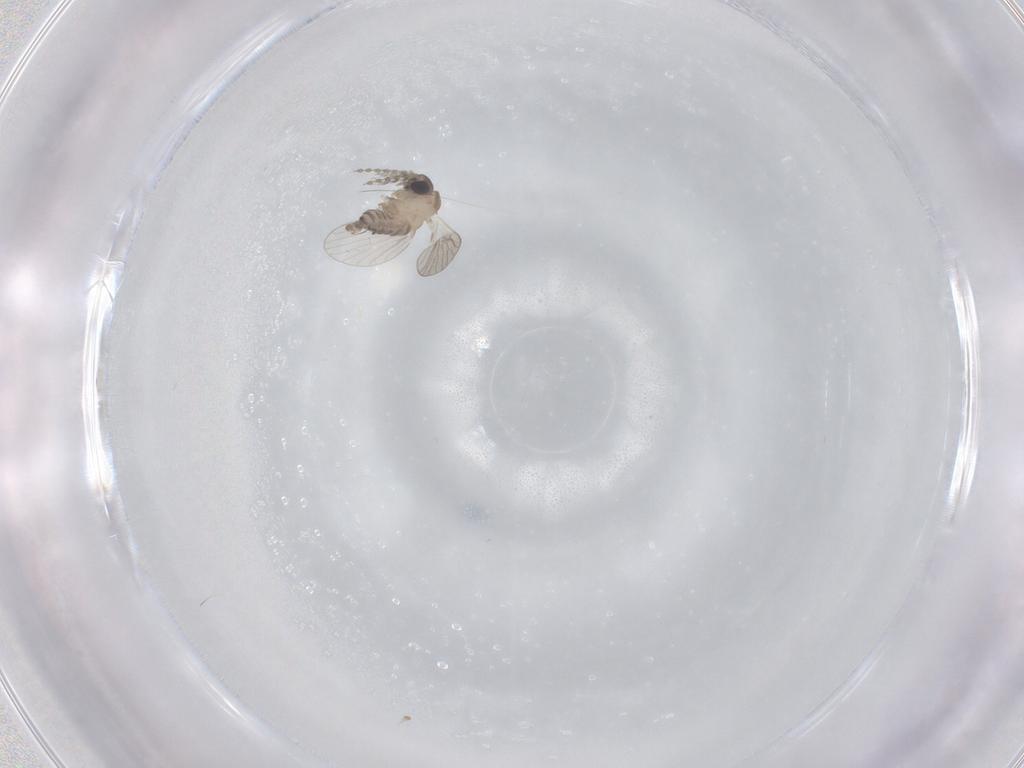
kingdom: Animalia
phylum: Arthropoda
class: Insecta
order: Diptera
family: Psychodidae
